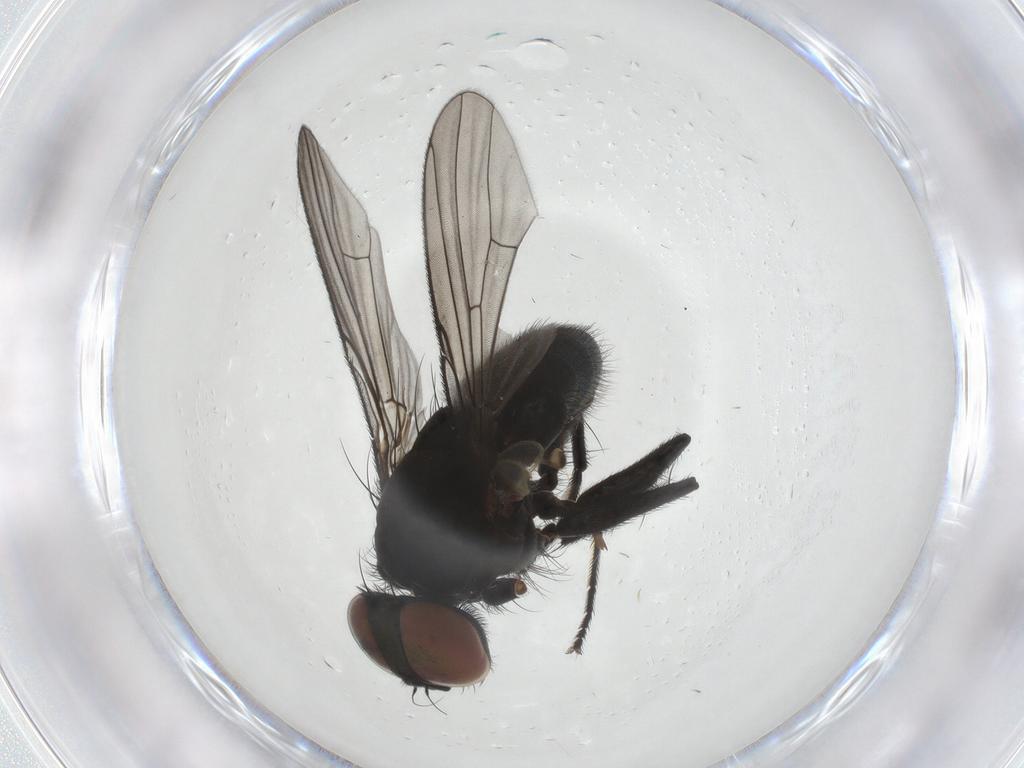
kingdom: Animalia
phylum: Arthropoda
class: Insecta
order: Diptera
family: Muscidae
